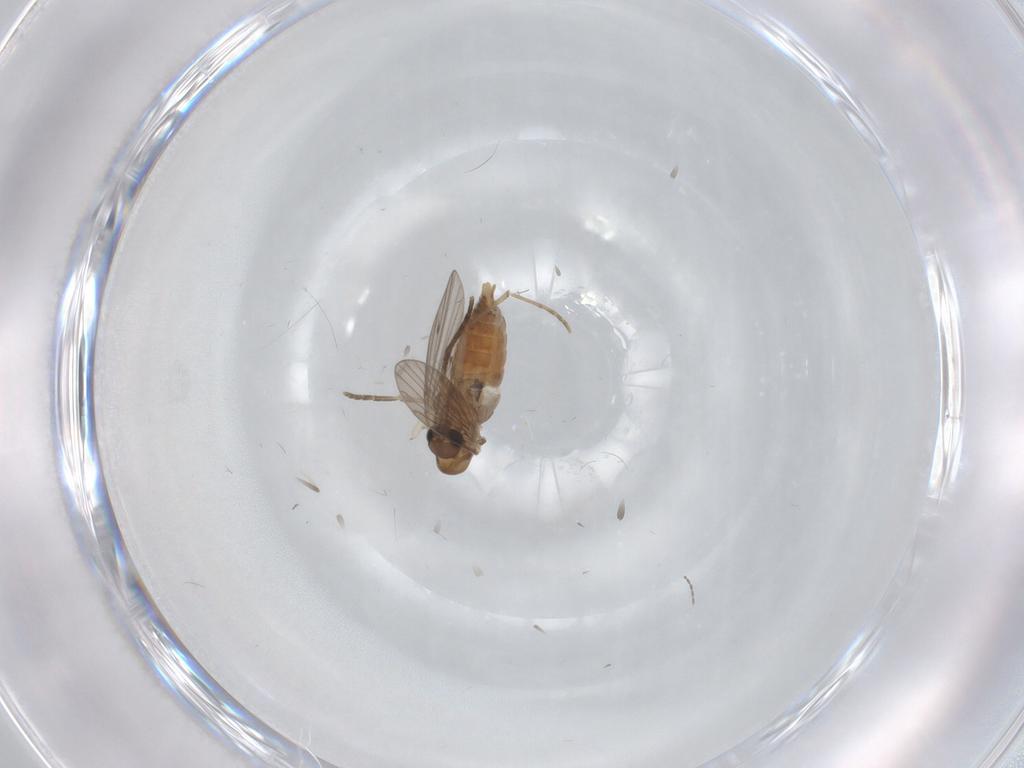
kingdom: Animalia
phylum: Arthropoda
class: Insecta
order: Diptera
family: Phoridae
